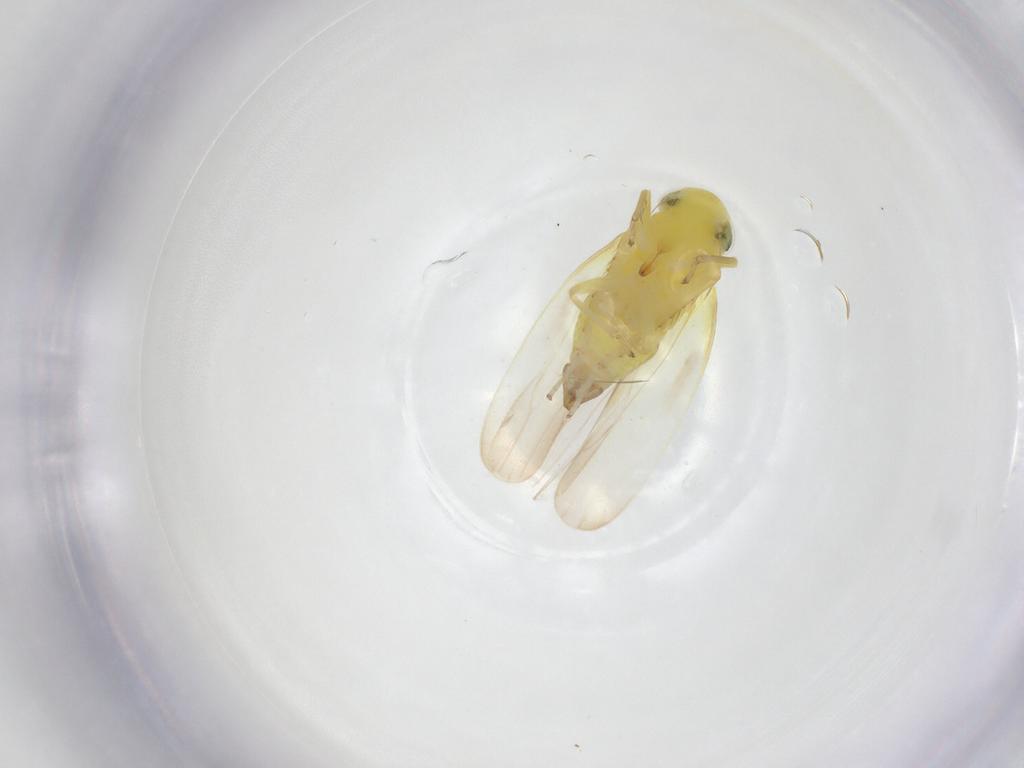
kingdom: Animalia
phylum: Arthropoda
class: Insecta
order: Hemiptera
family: Cicadellidae
